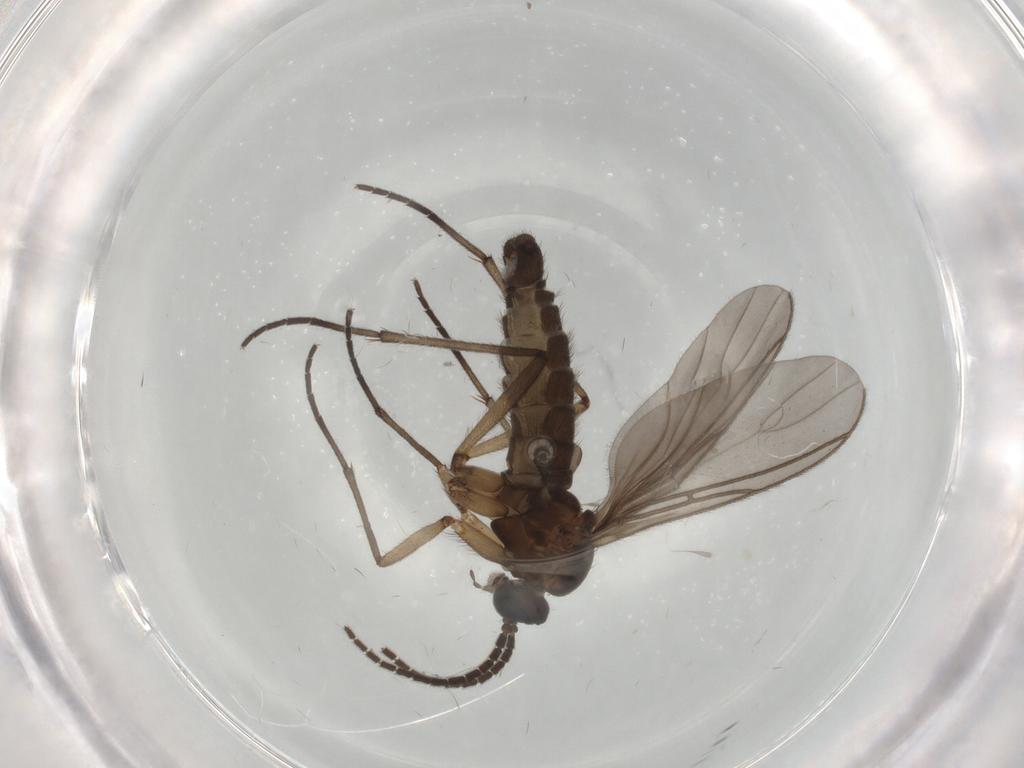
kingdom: Animalia
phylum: Arthropoda
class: Insecta
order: Diptera
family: Sciaridae
